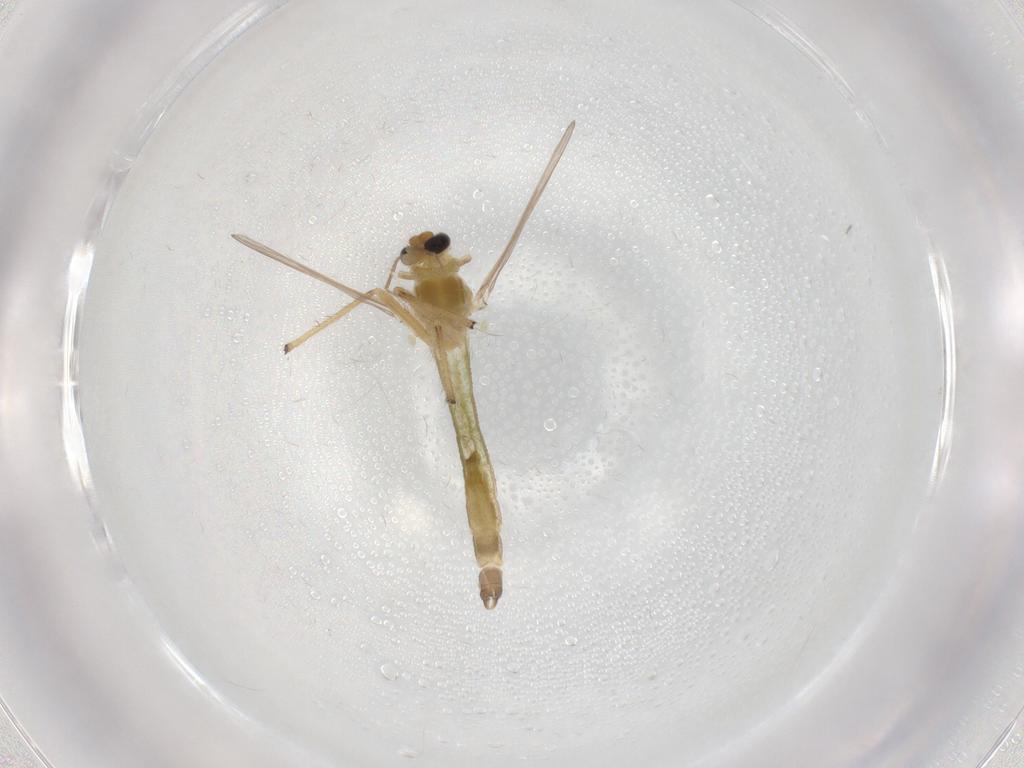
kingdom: Animalia
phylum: Arthropoda
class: Insecta
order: Diptera
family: Chironomidae
